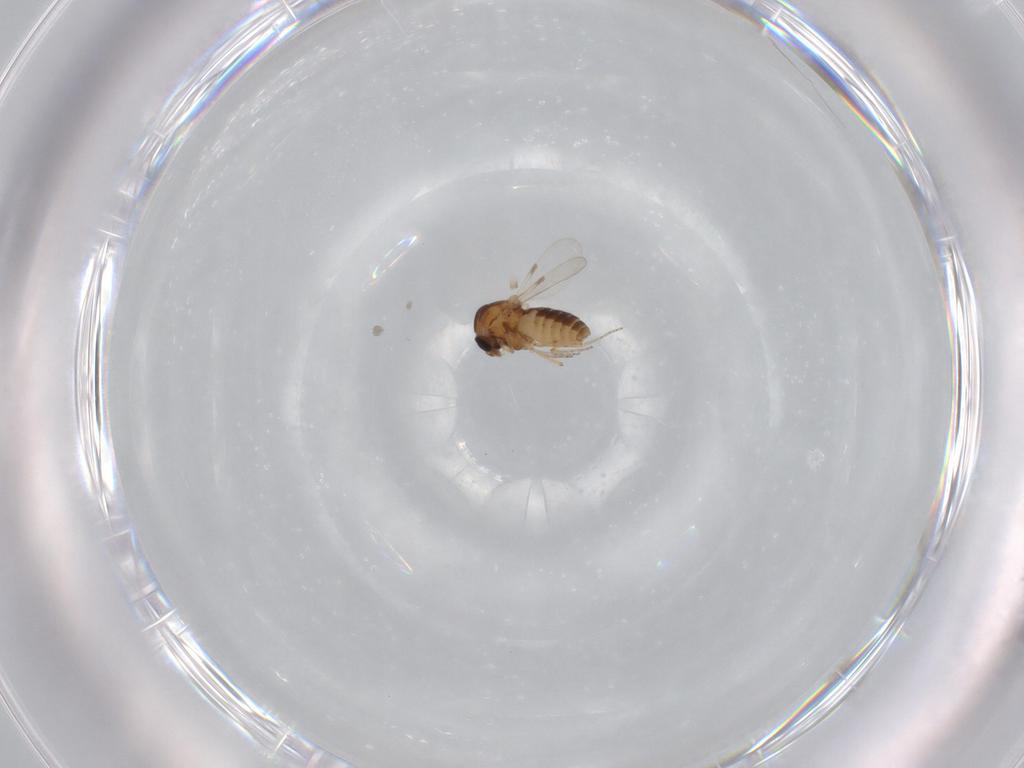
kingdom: Animalia
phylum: Arthropoda
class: Insecta
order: Diptera
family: Ceratopogonidae
